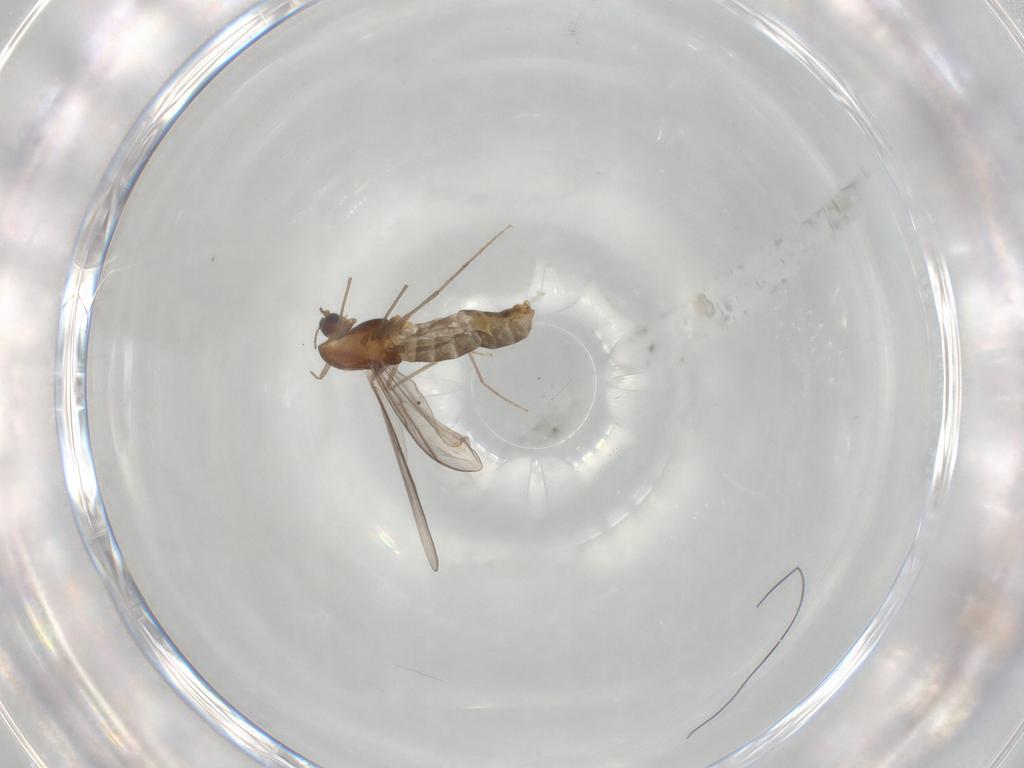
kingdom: Animalia
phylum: Arthropoda
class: Insecta
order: Diptera
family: Chironomidae
